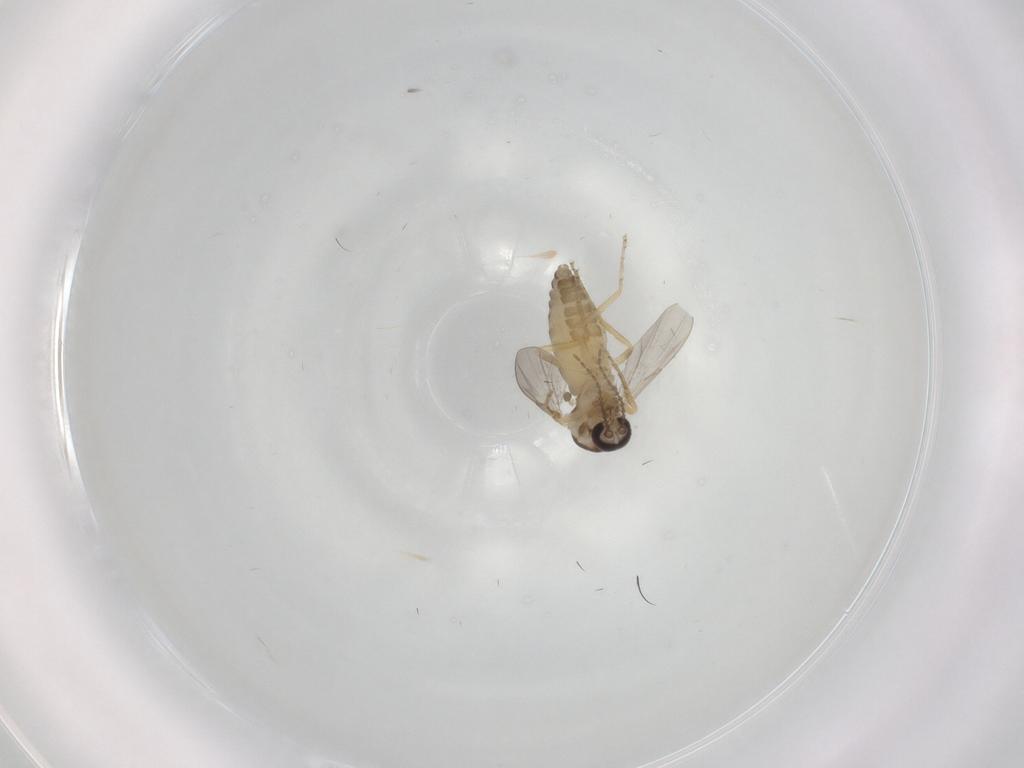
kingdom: Animalia
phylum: Arthropoda
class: Insecta
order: Diptera
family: Ceratopogonidae
